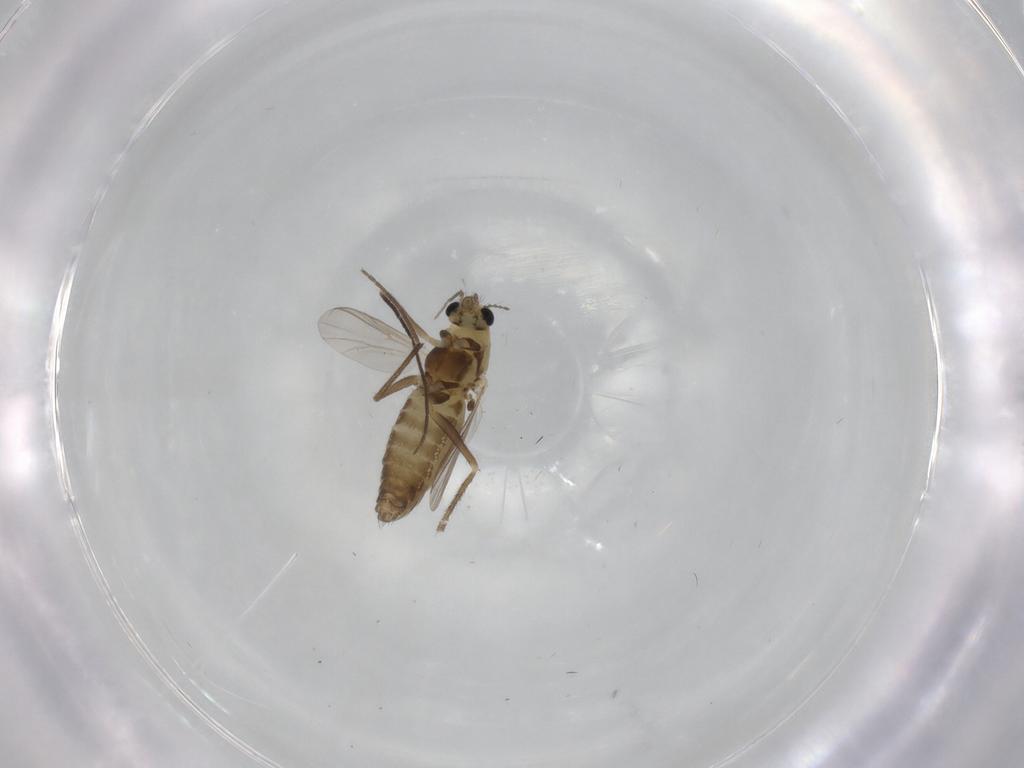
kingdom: Animalia
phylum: Arthropoda
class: Insecta
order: Diptera
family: Chironomidae
